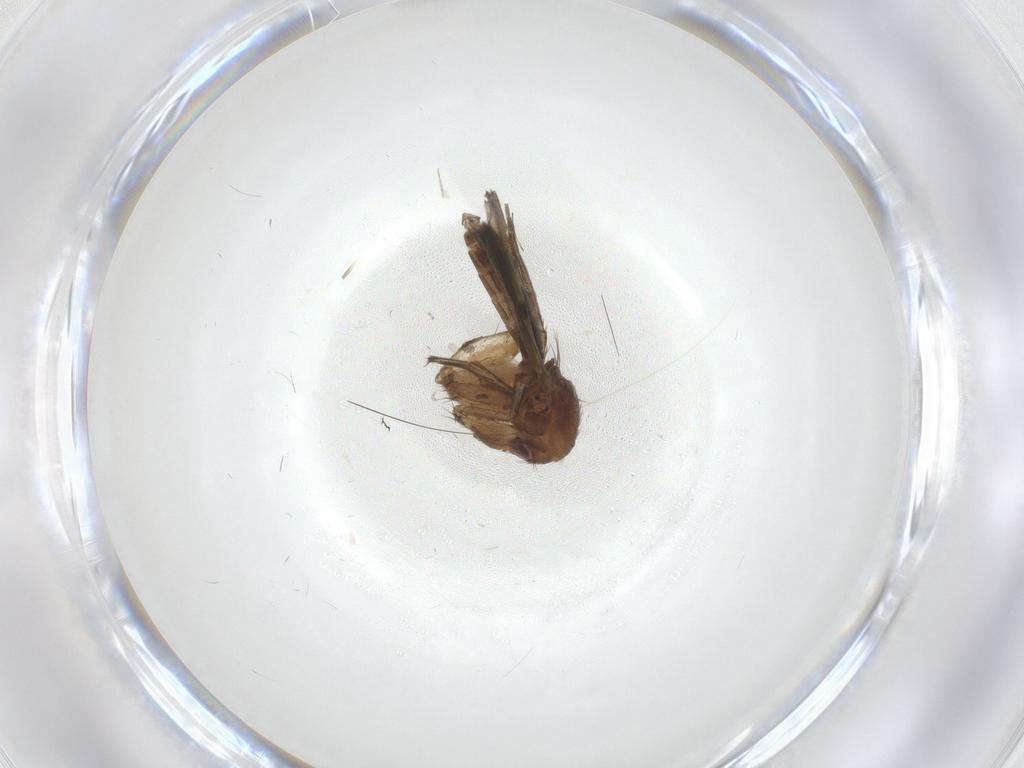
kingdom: Animalia
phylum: Arthropoda
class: Insecta
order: Diptera
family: Mycetophilidae
